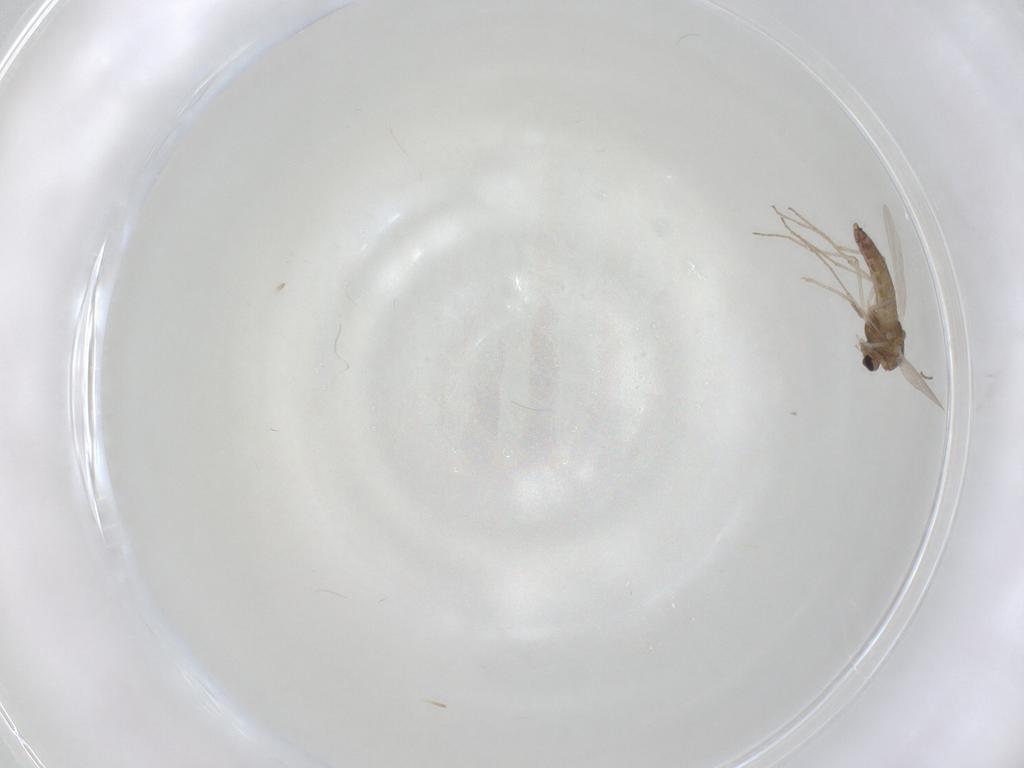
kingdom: Animalia
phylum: Arthropoda
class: Insecta
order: Diptera
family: Chironomidae
